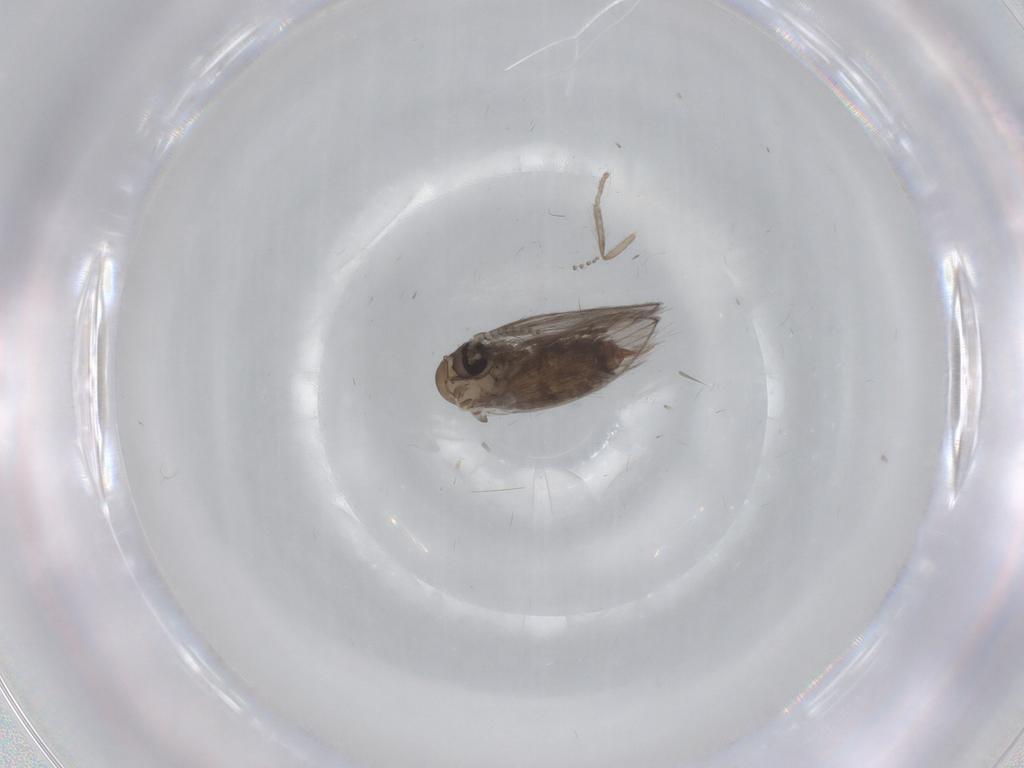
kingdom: Animalia
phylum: Arthropoda
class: Insecta
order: Diptera
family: Psychodidae
